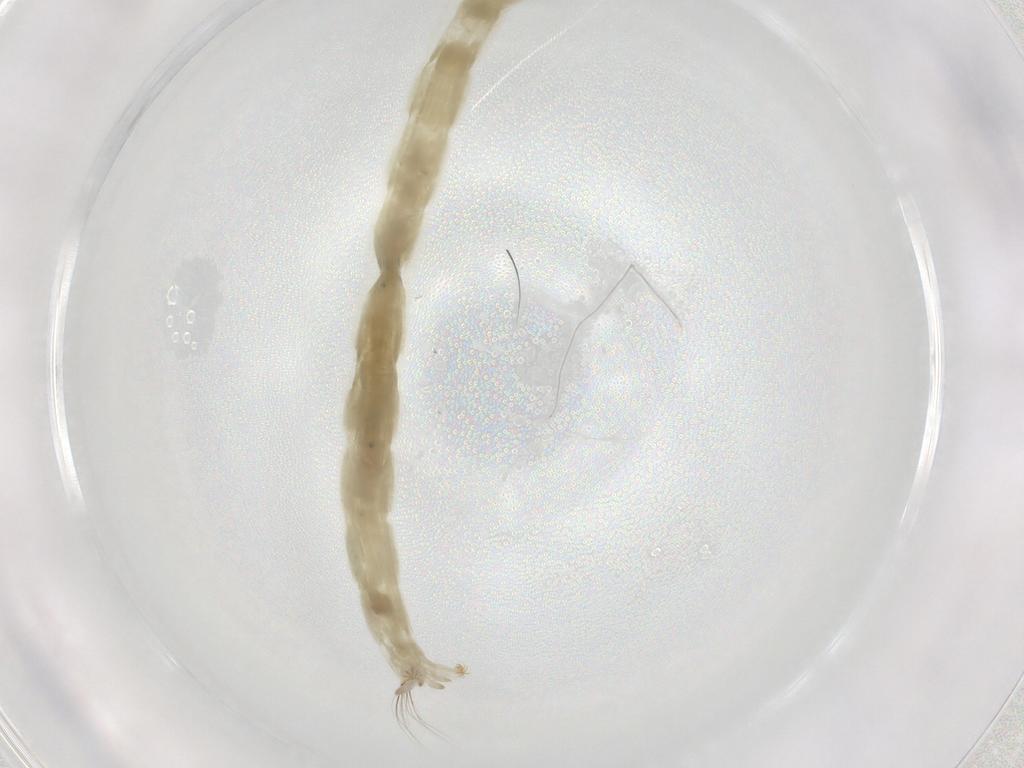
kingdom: Animalia
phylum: Arthropoda
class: Insecta
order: Diptera
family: Chironomidae
